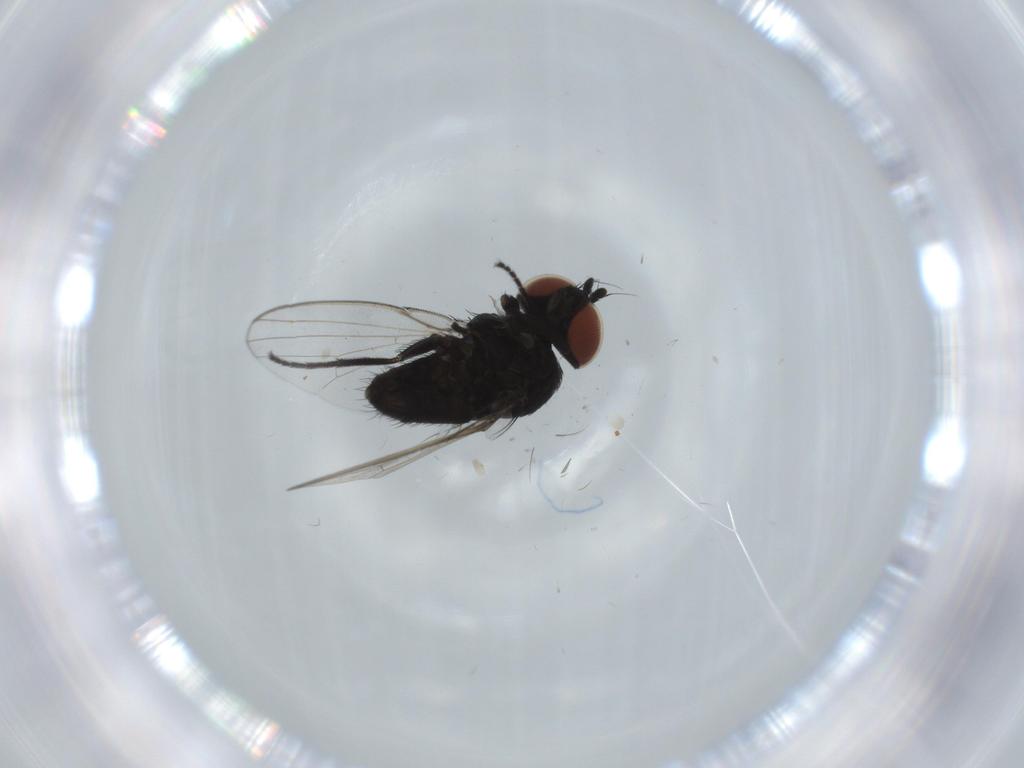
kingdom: Animalia
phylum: Arthropoda
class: Insecta
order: Diptera
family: Milichiidae
